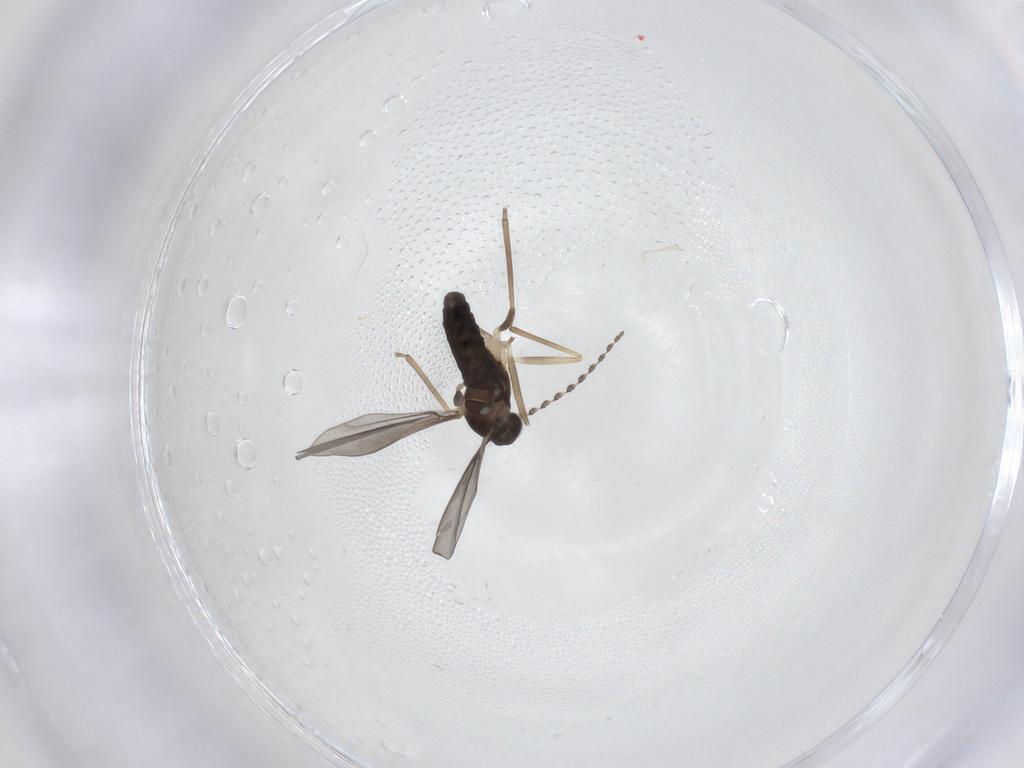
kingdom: Animalia
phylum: Arthropoda
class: Insecta
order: Diptera
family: Cecidomyiidae
